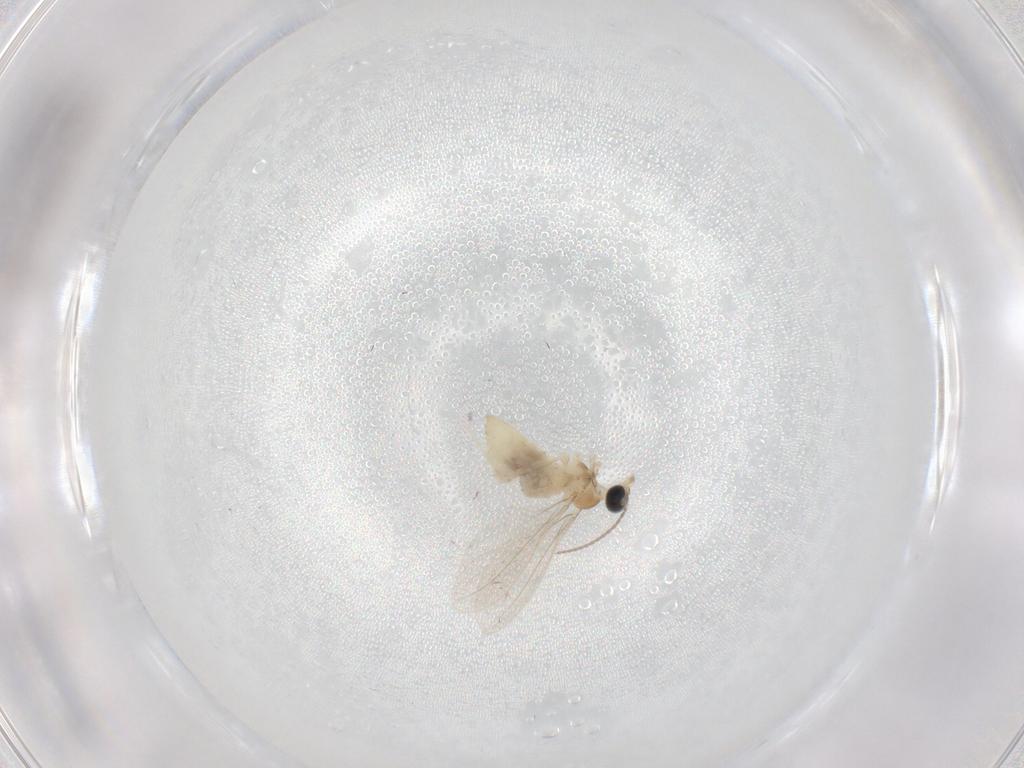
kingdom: Animalia
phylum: Arthropoda
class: Insecta
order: Diptera
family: Cecidomyiidae
